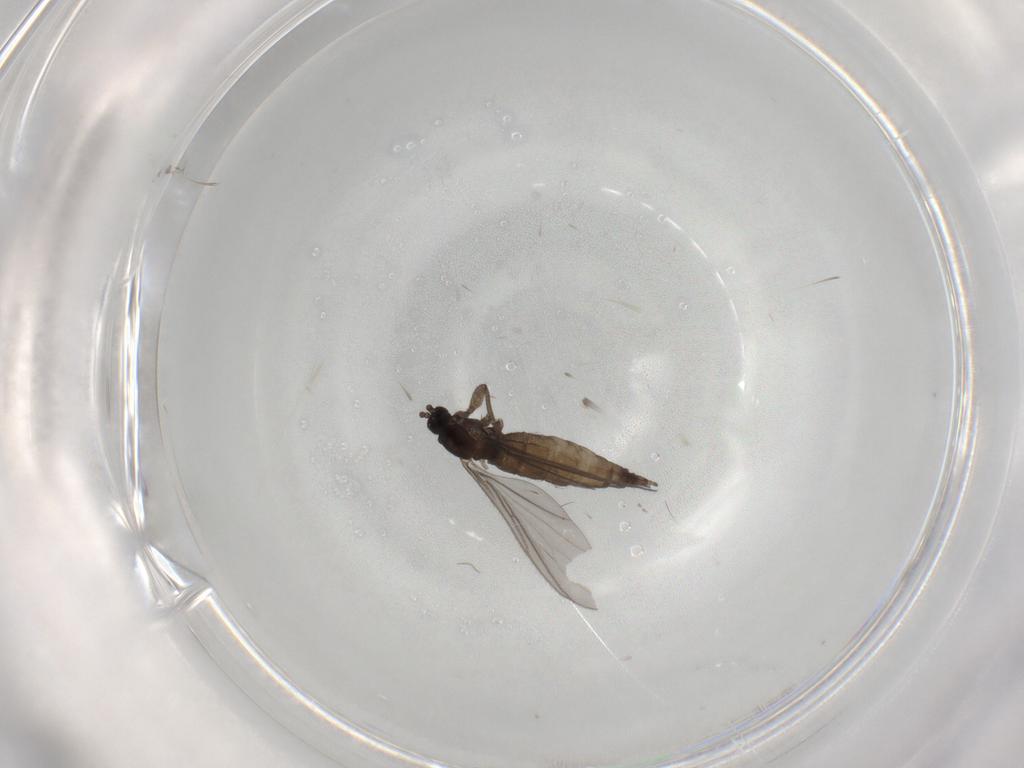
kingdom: Animalia
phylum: Arthropoda
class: Insecta
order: Diptera
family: Sciaridae
